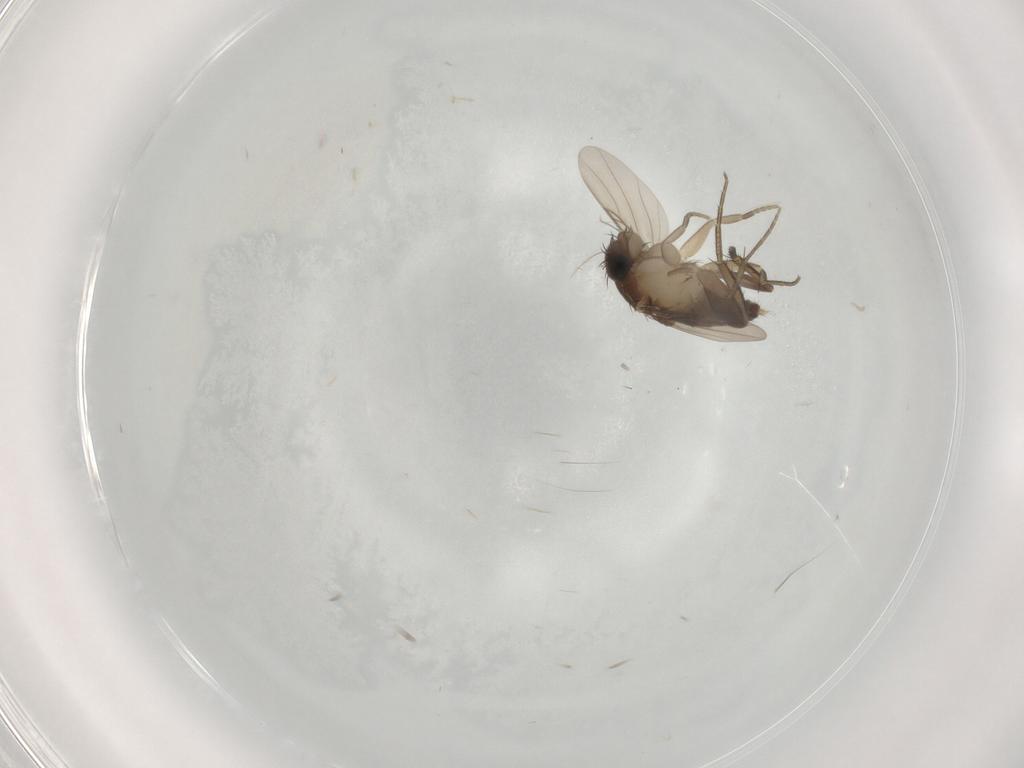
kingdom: Animalia
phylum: Arthropoda
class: Insecta
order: Diptera
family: Phoridae
